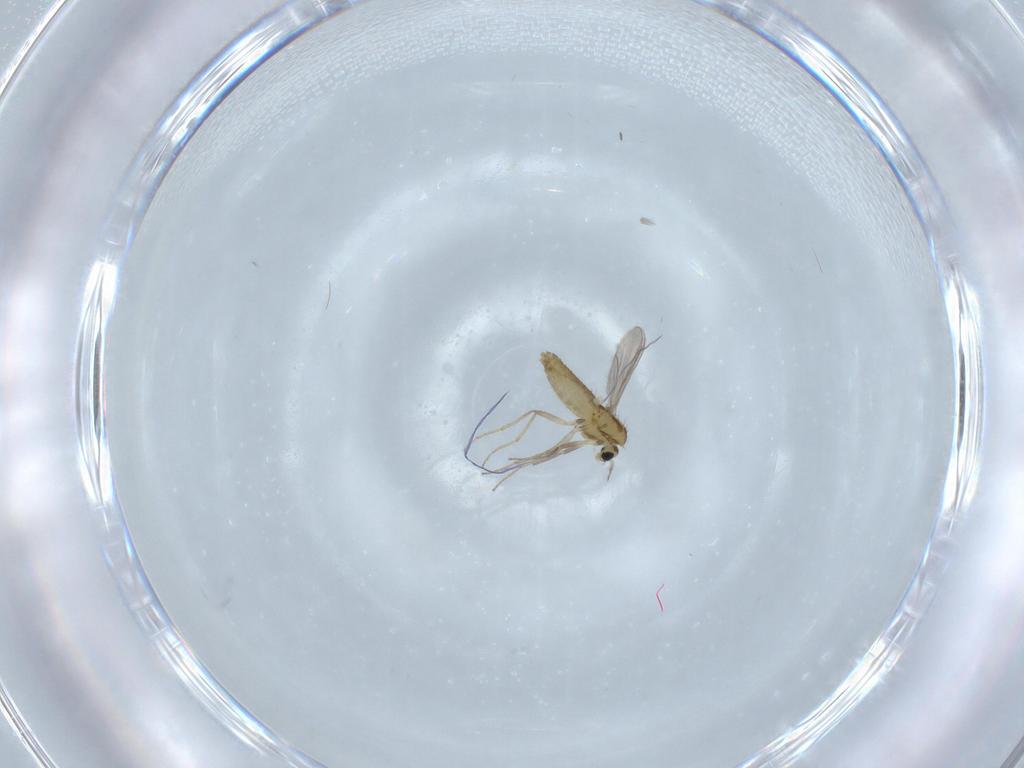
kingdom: Animalia
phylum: Arthropoda
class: Insecta
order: Diptera
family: Chironomidae
